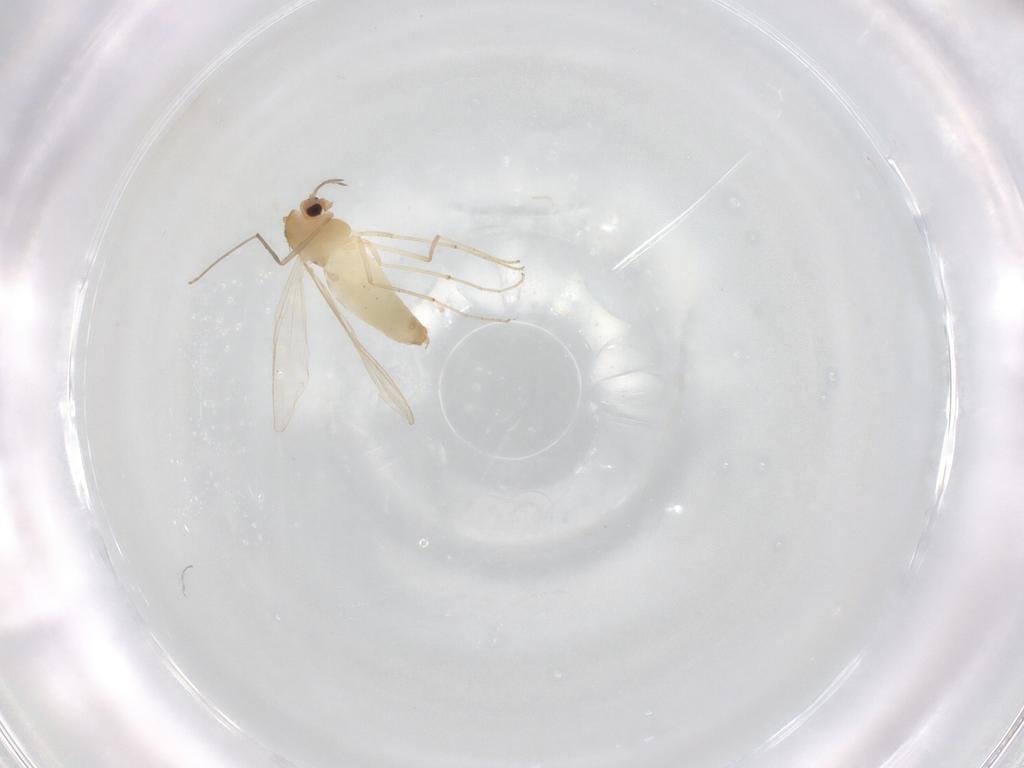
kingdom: Animalia
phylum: Arthropoda
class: Insecta
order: Diptera
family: Chironomidae
